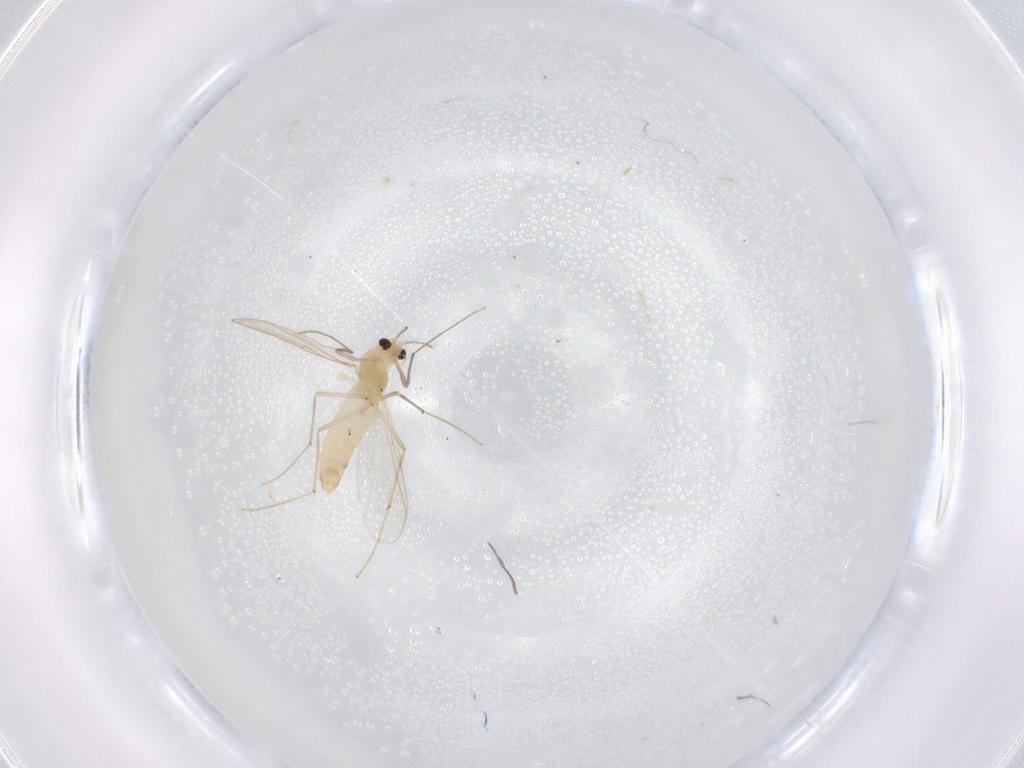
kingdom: Animalia
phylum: Arthropoda
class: Insecta
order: Diptera
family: Chironomidae
